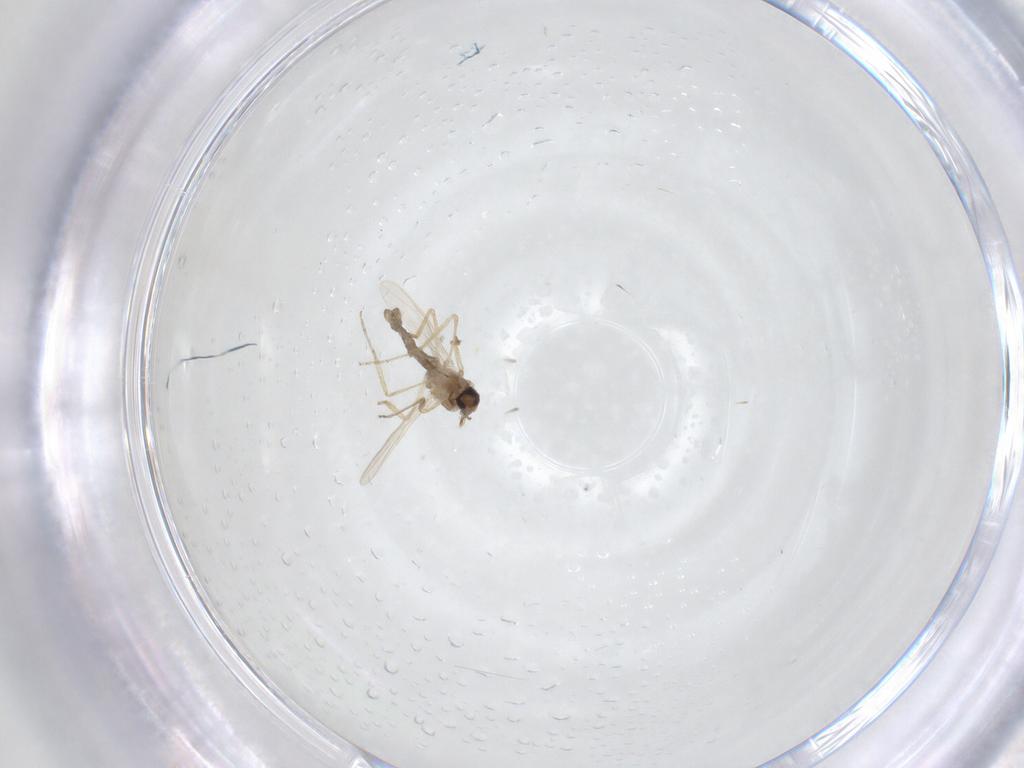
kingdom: Animalia
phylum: Arthropoda
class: Insecta
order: Diptera
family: Ceratopogonidae
